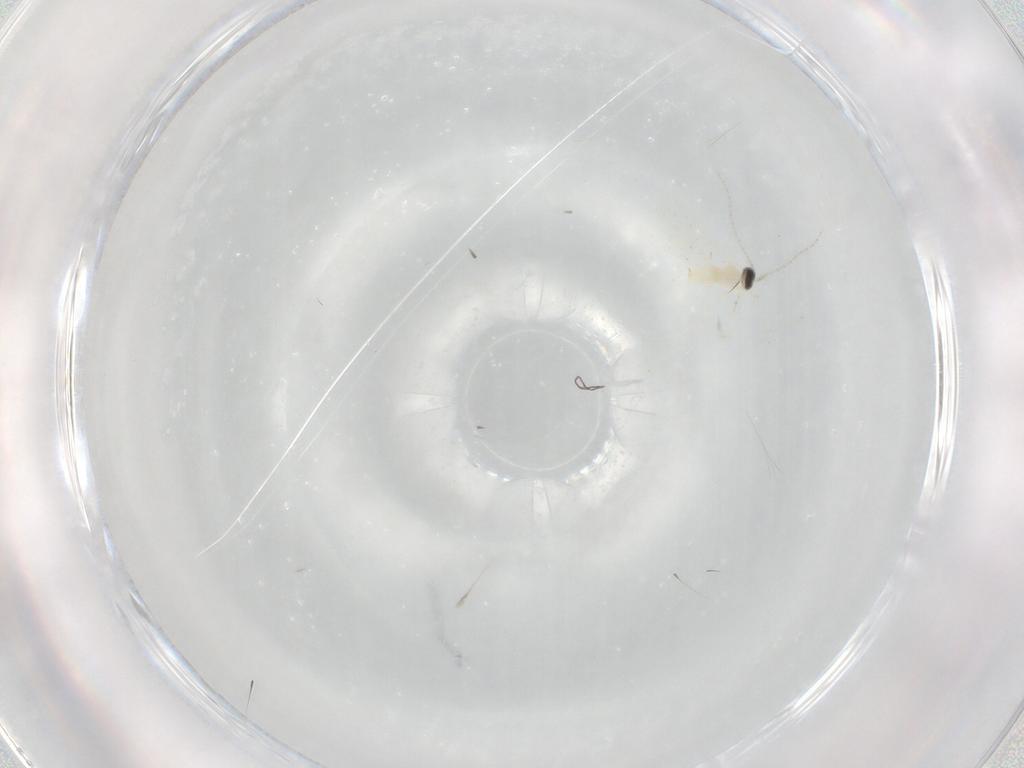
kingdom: Animalia
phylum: Arthropoda
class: Insecta
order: Diptera
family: Cecidomyiidae
